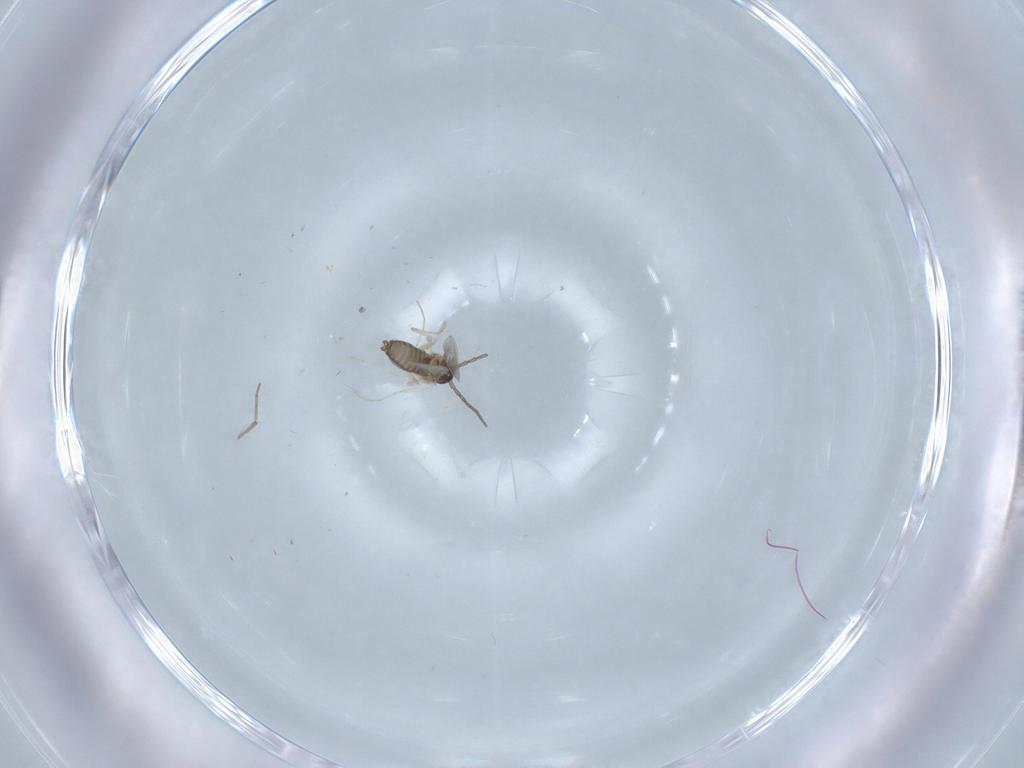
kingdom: Animalia
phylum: Arthropoda
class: Insecta
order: Diptera
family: Chironomidae
